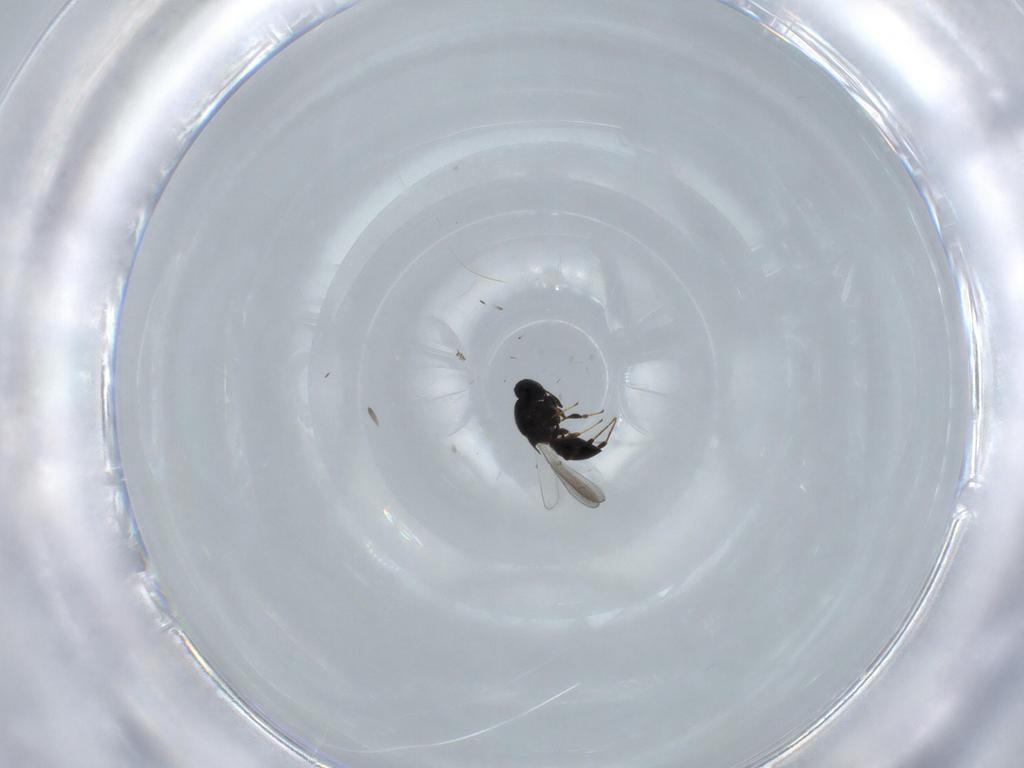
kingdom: Animalia
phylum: Arthropoda
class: Insecta
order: Hymenoptera
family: Platygastridae
